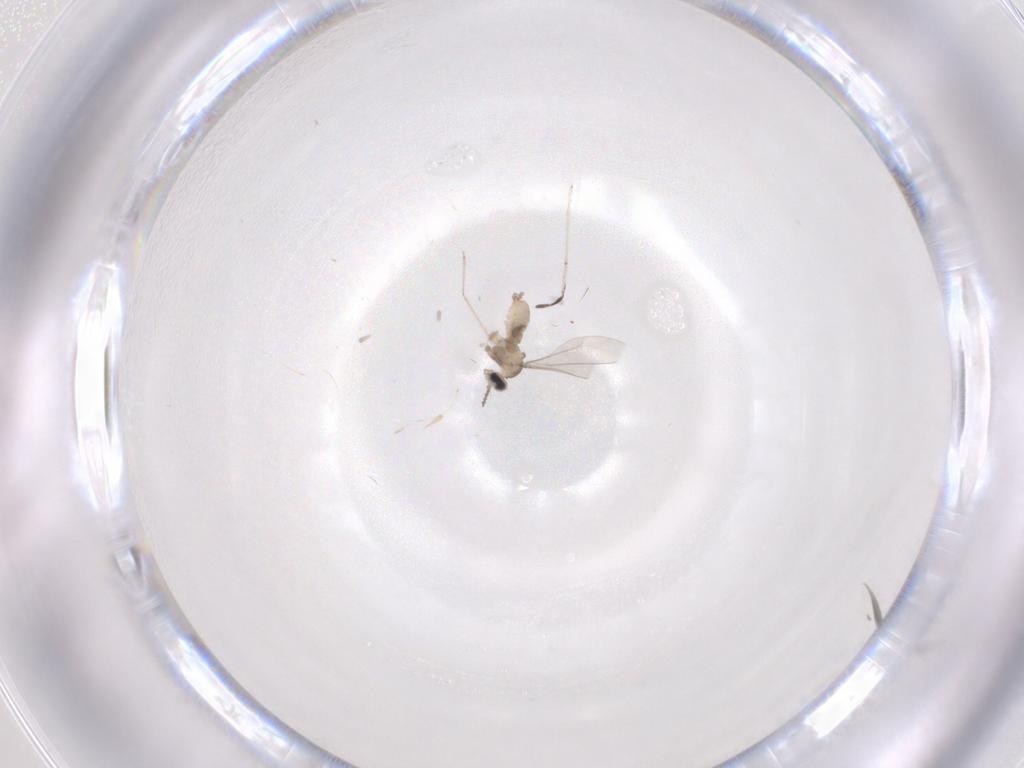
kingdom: Animalia
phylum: Arthropoda
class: Insecta
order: Diptera
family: Cecidomyiidae
